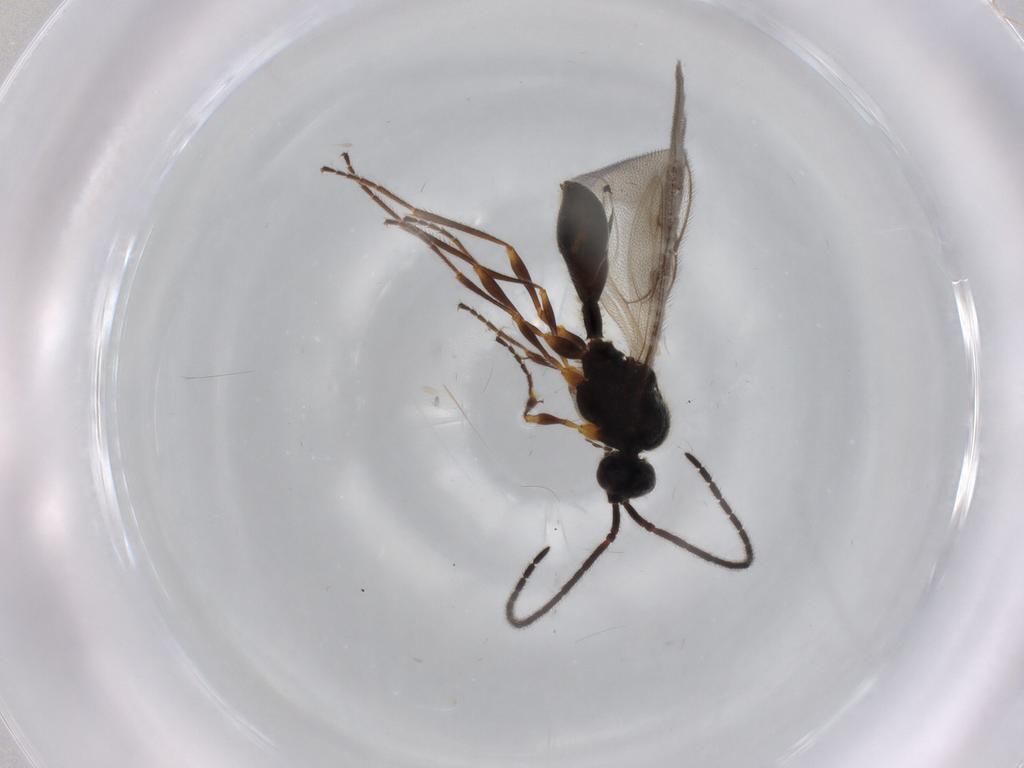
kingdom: Animalia
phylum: Arthropoda
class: Insecta
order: Hymenoptera
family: Diapriidae
